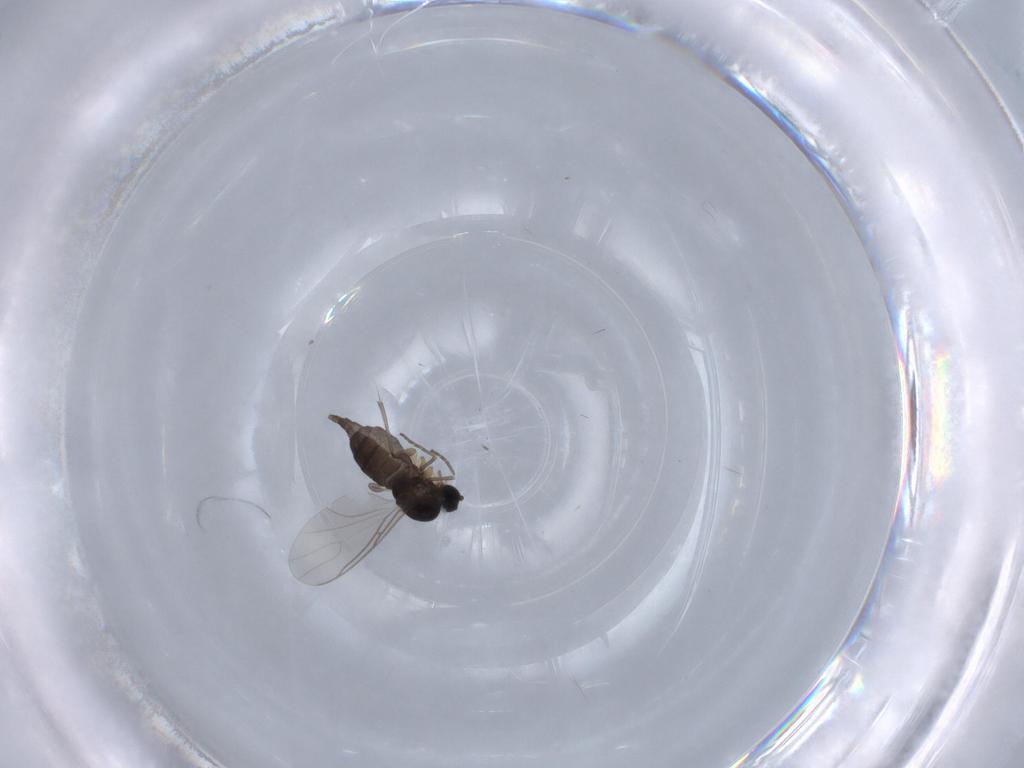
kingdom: Animalia
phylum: Arthropoda
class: Insecta
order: Diptera
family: Sciaridae
